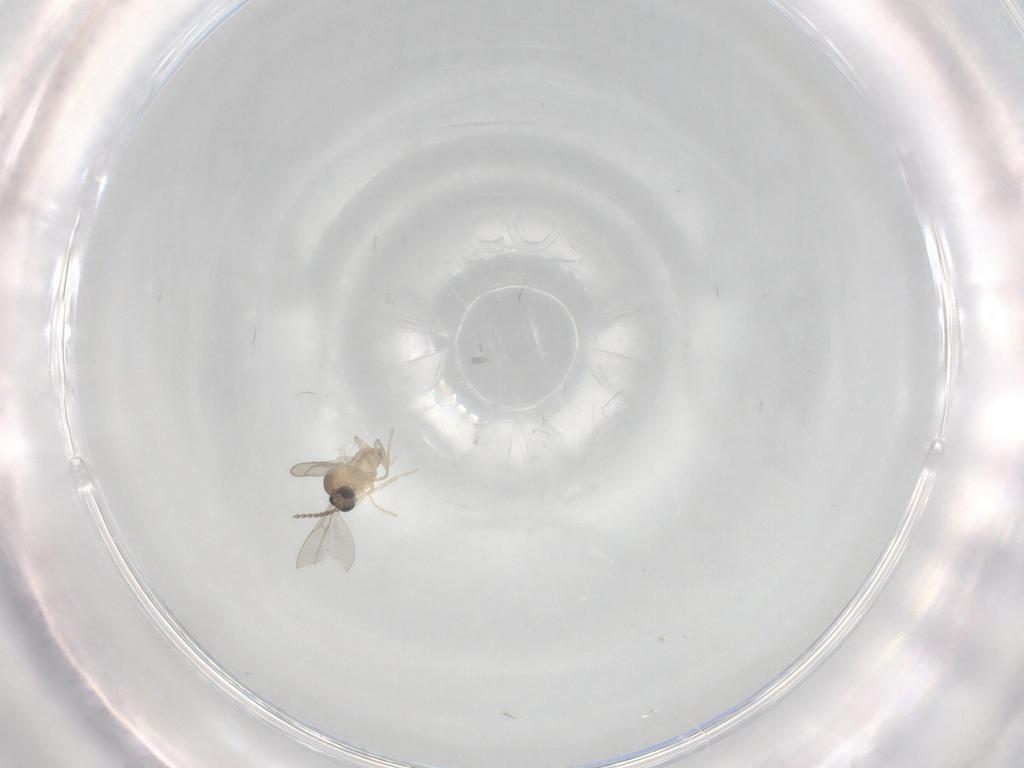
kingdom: Animalia
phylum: Arthropoda
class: Insecta
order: Diptera
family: Cecidomyiidae
